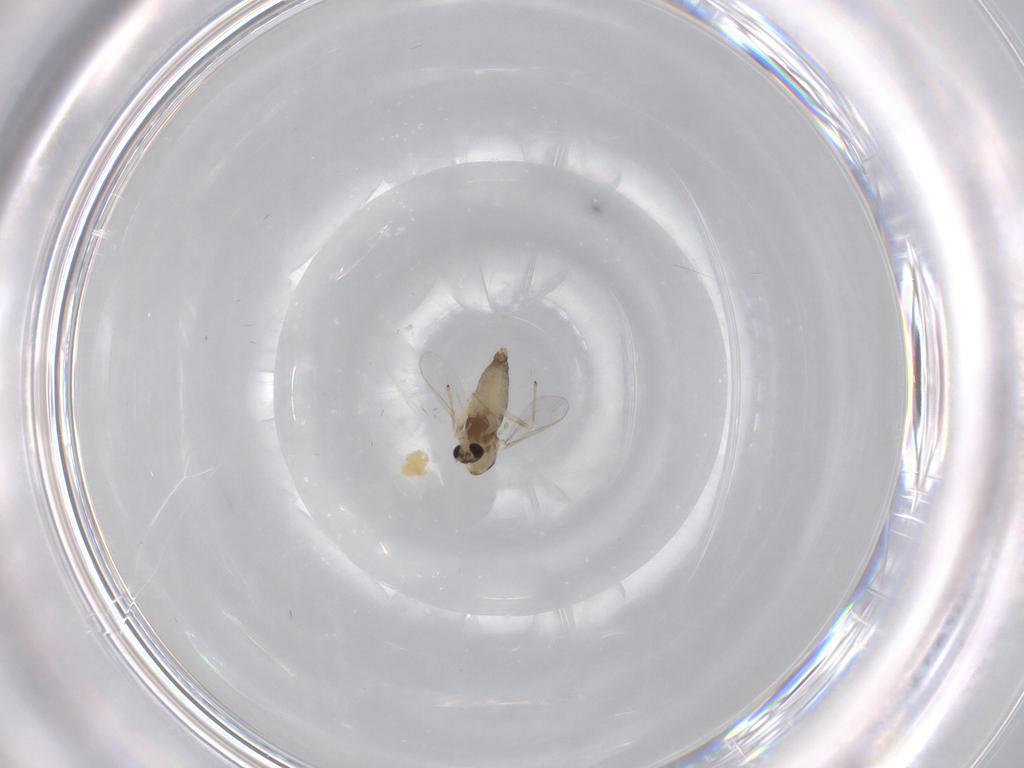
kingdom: Animalia
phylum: Arthropoda
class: Insecta
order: Diptera
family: Chironomidae
